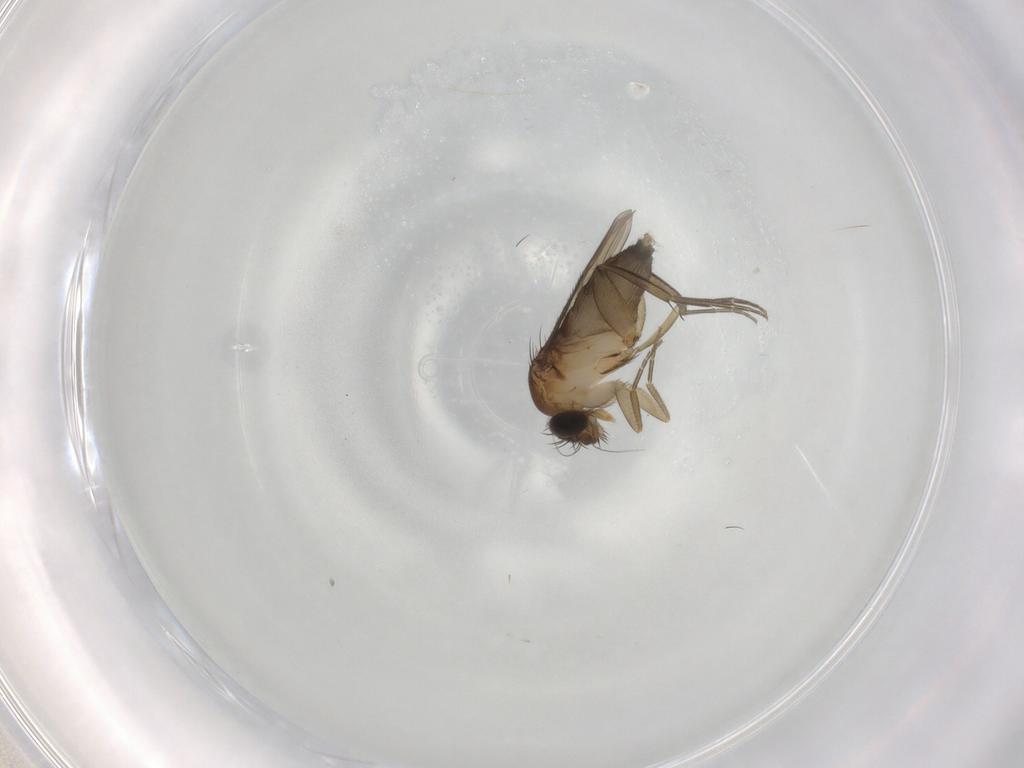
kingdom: Animalia
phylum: Arthropoda
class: Insecta
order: Diptera
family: Phoridae
